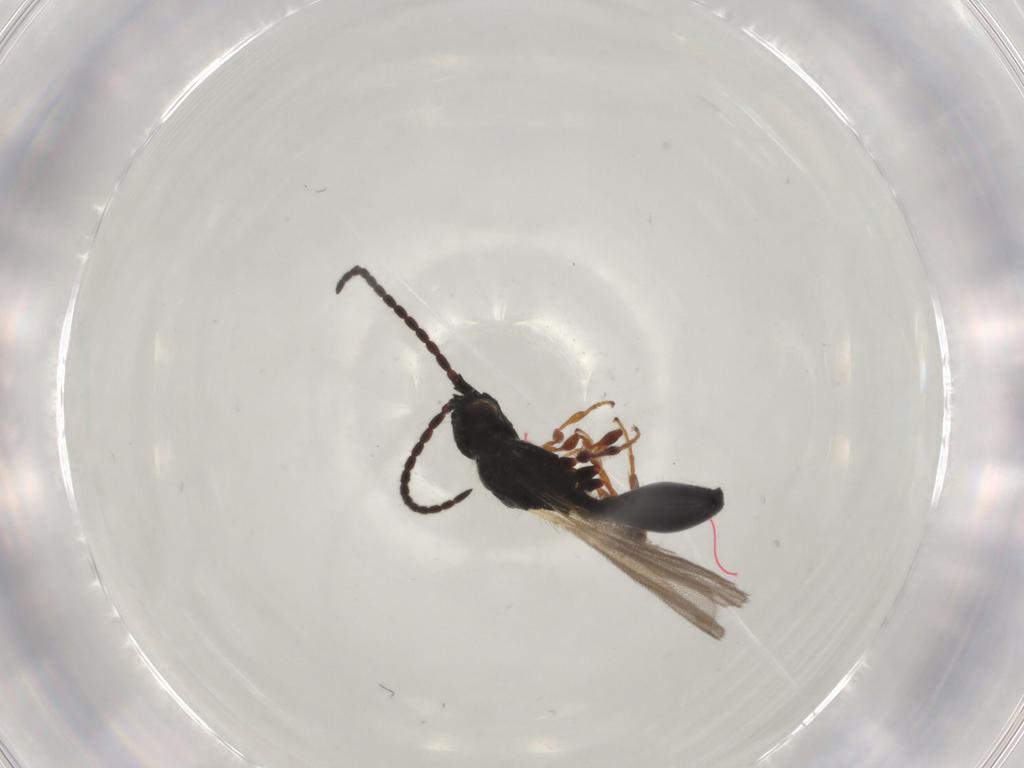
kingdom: Animalia
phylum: Arthropoda
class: Insecta
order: Hymenoptera
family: Diapriidae
